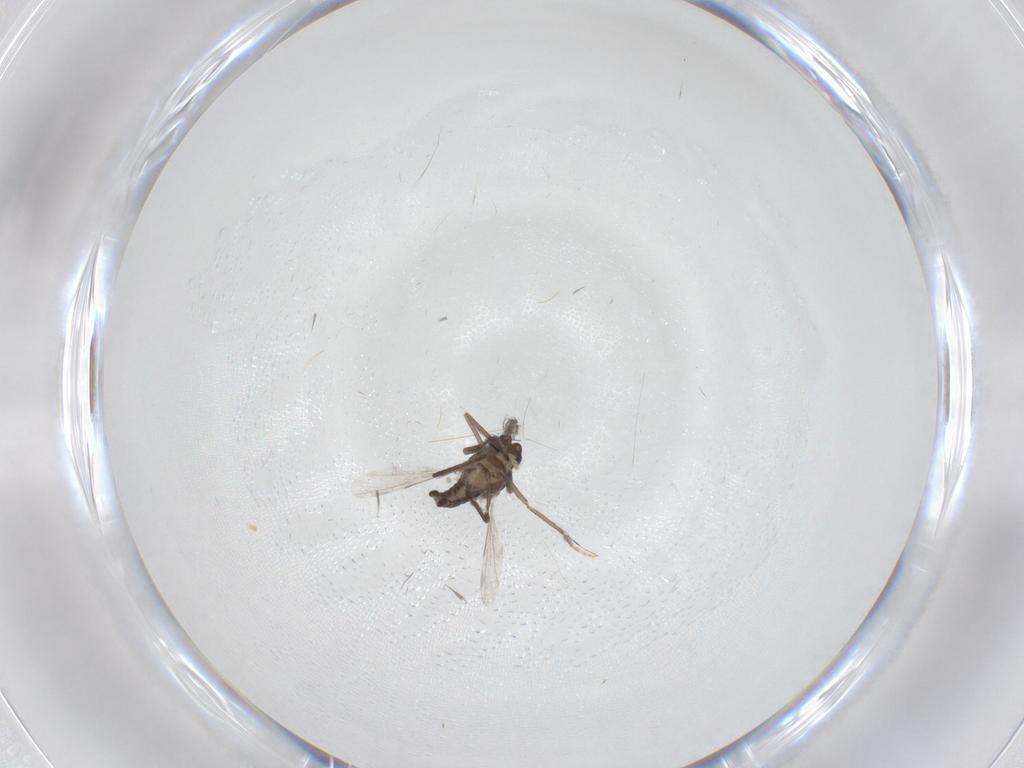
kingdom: Animalia
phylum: Arthropoda
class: Insecta
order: Diptera
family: Ceratopogonidae
